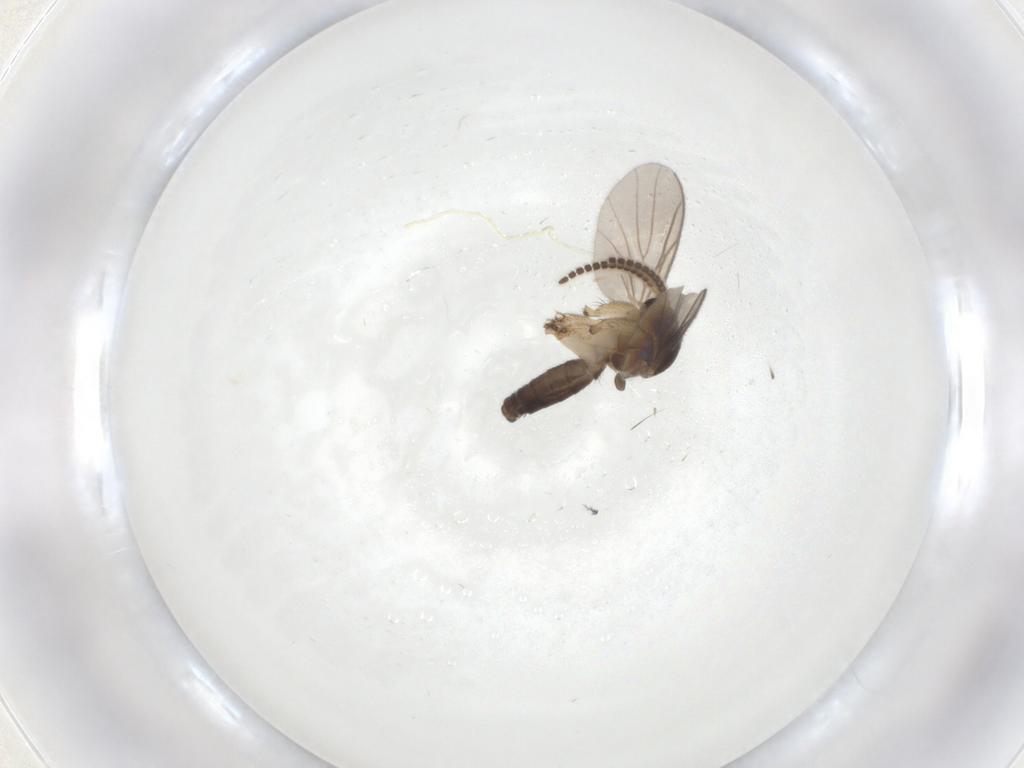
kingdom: Animalia
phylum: Arthropoda
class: Insecta
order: Diptera
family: Sciaridae
